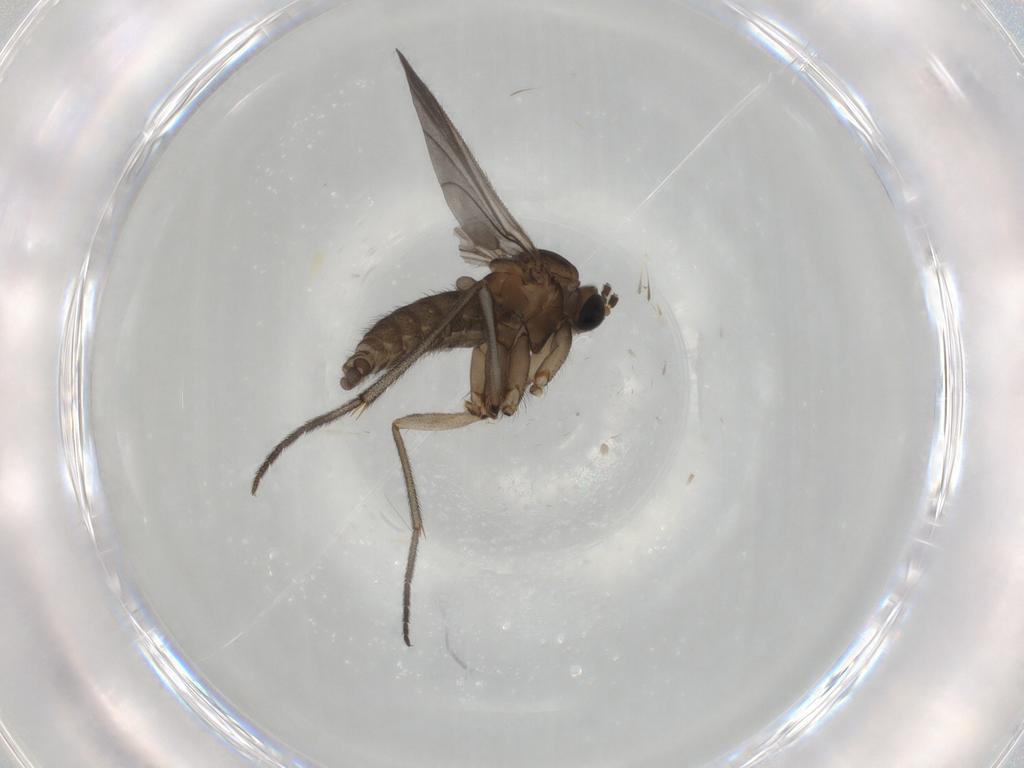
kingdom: Animalia
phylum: Arthropoda
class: Insecta
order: Diptera
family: Sciaridae
